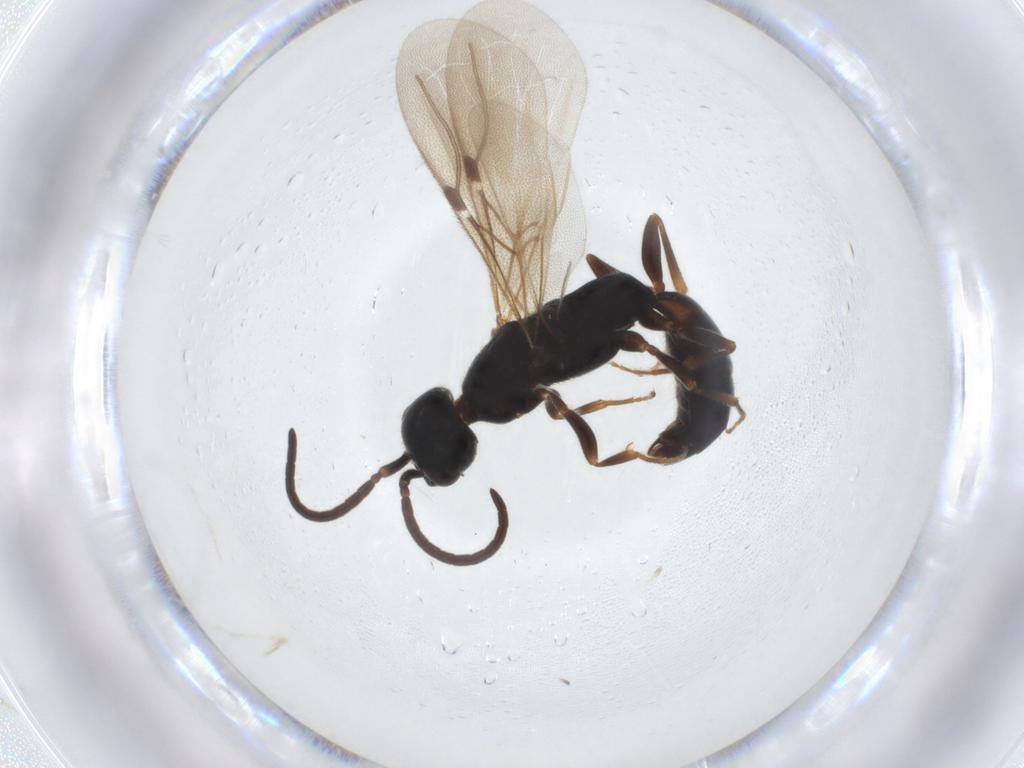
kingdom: Animalia
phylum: Arthropoda
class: Insecta
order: Hymenoptera
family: Bethylidae
